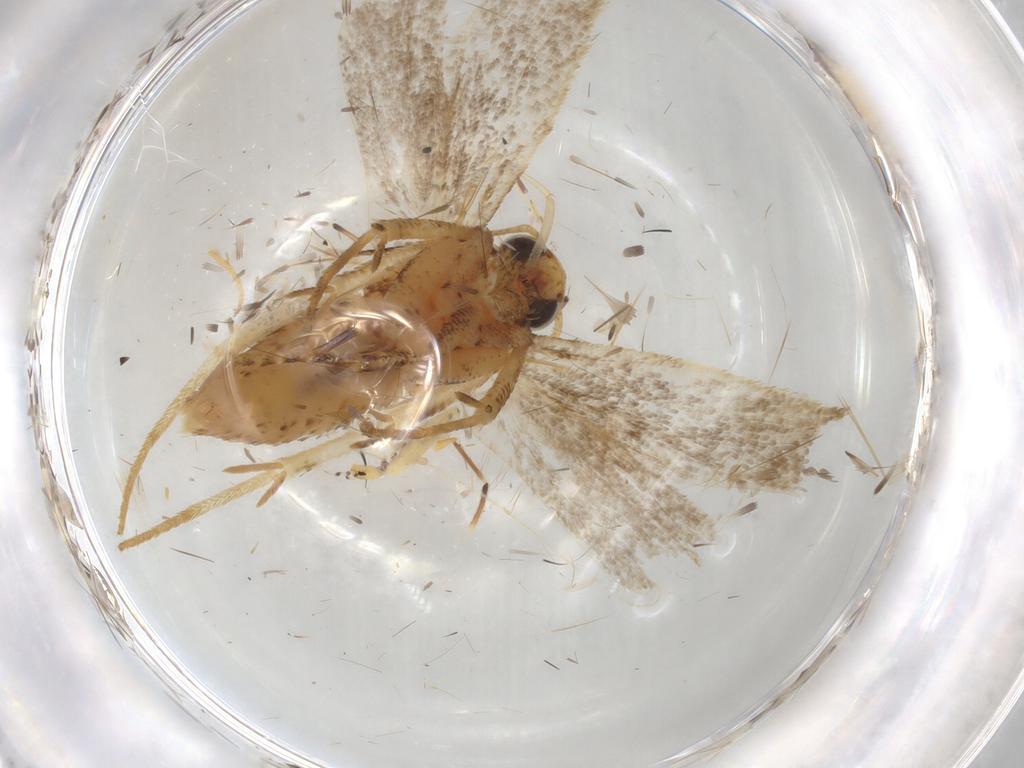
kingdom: Animalia
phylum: Arthropoda
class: Insecta
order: Lepidoptera
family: Gelechiidae
